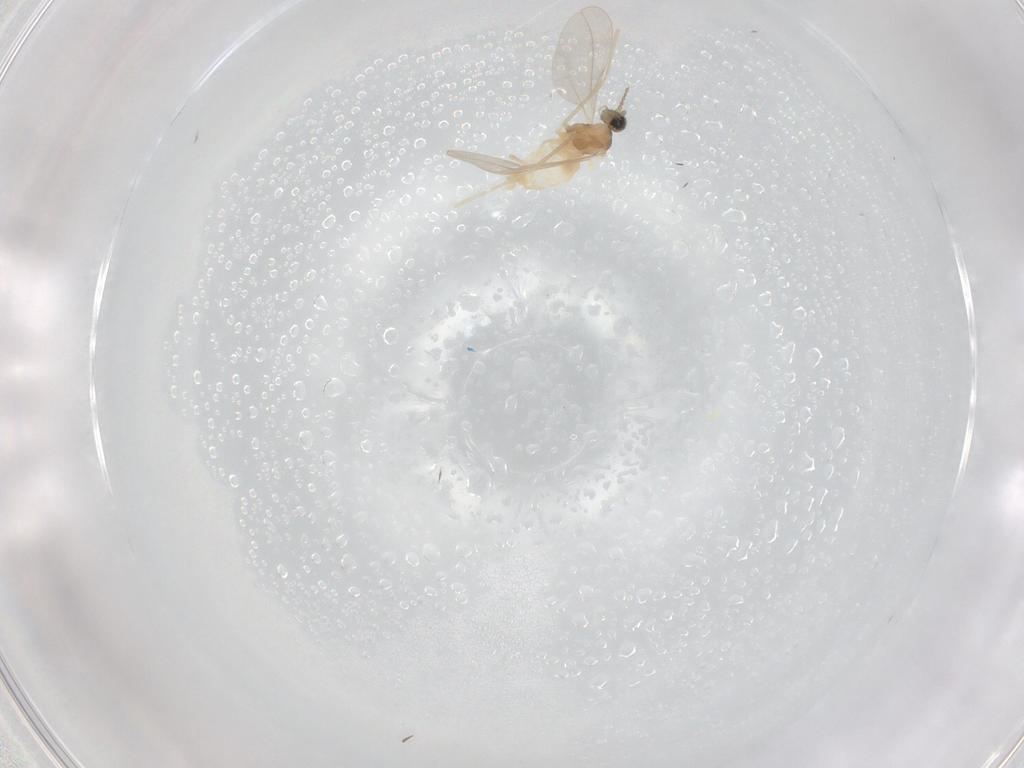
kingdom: Animalia
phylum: Arthropoda
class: Insecta
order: Diptera
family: Cecidomyiidae
